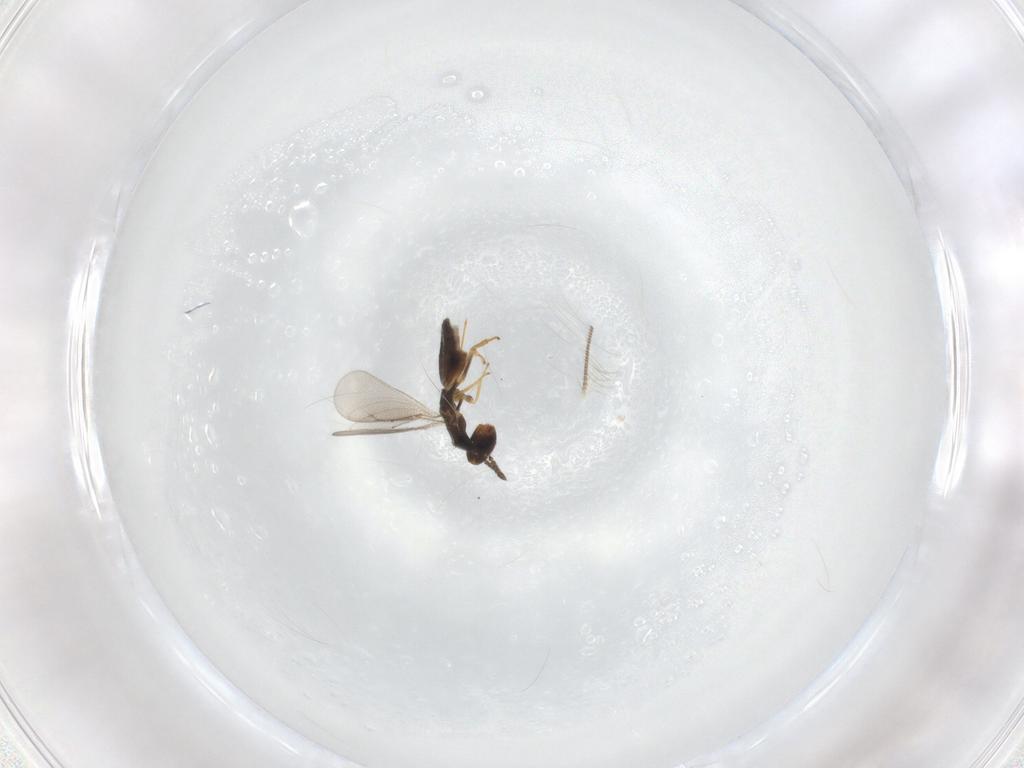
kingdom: Animalia
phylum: Arthropoda
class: Insecta
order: Hymenoptera
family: Eulophidae
